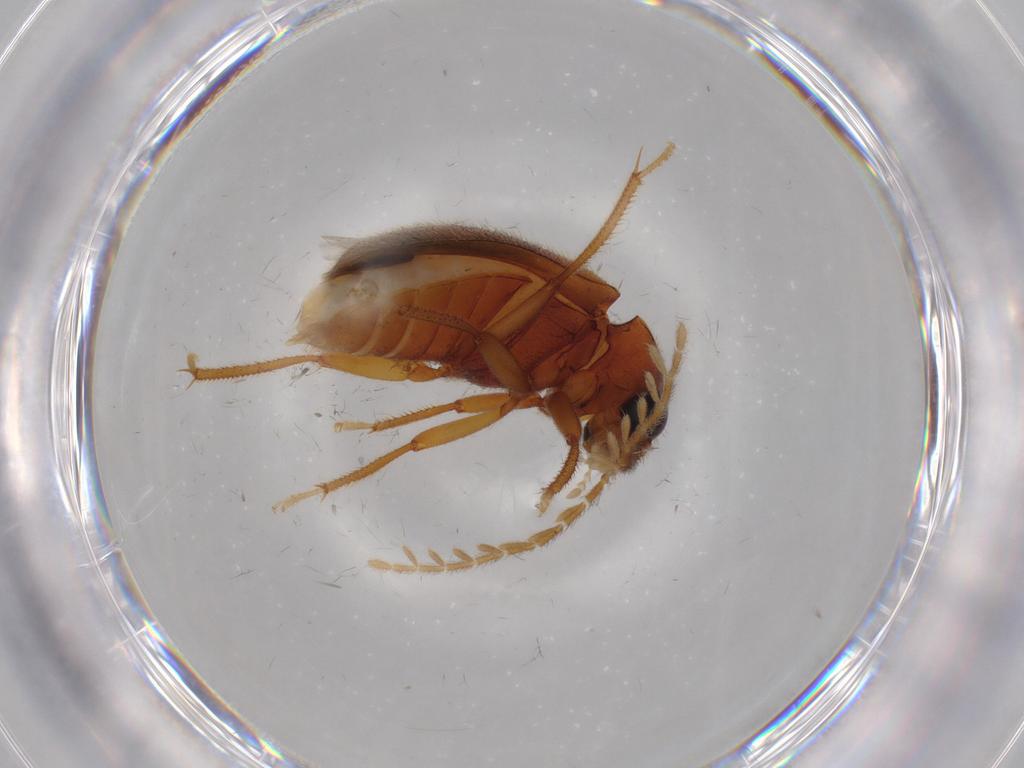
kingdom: Animalia
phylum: Arthropoda
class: Insecta
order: Coleoptera
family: Ptilodactylidae
